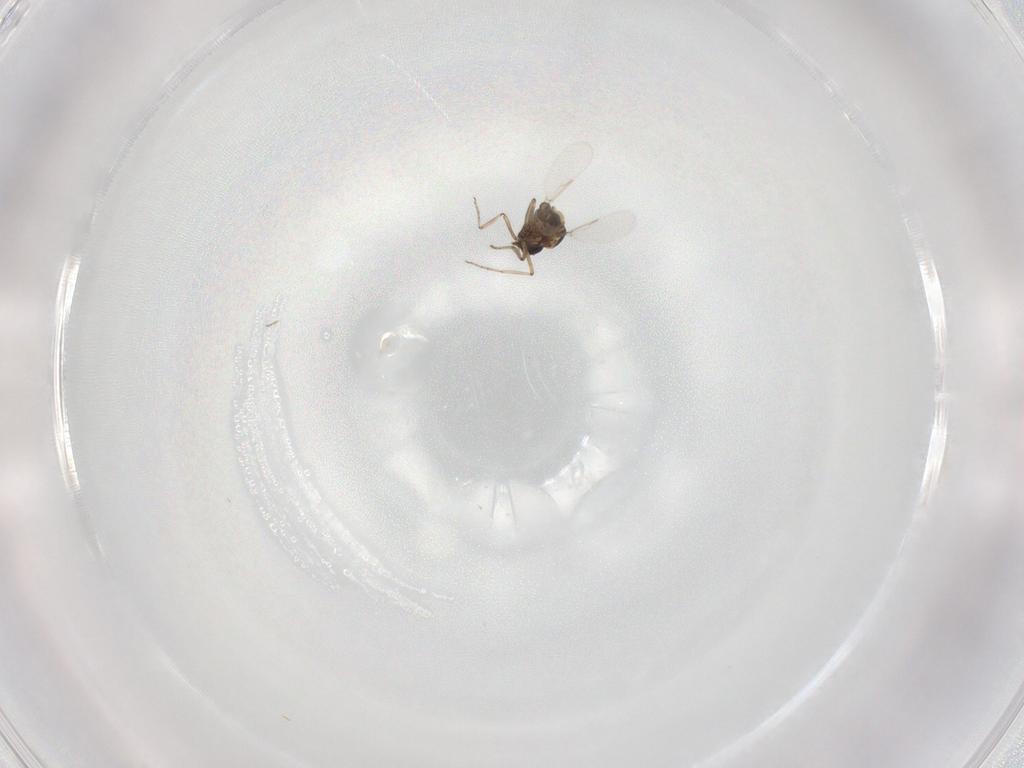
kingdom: Animalia
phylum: Arthropoda
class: Insecta
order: Diptera
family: Ceratopogonidae
